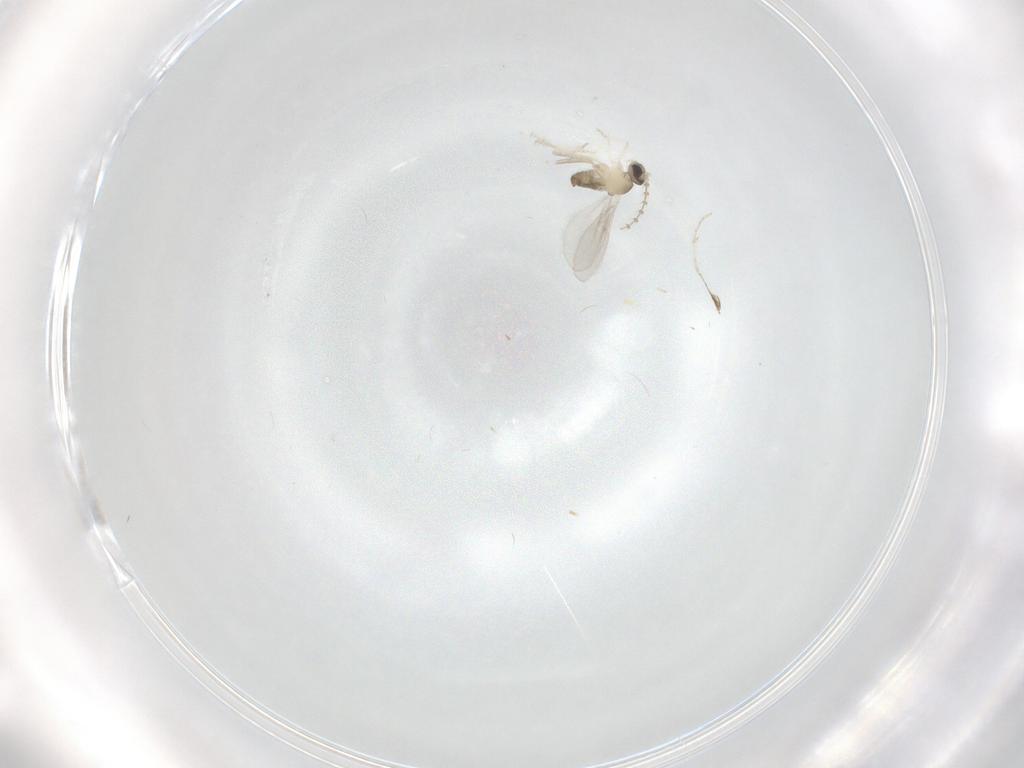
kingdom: Animalia
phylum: Arthropoda
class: Insecta
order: Diptera
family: Cecidomyiidae
